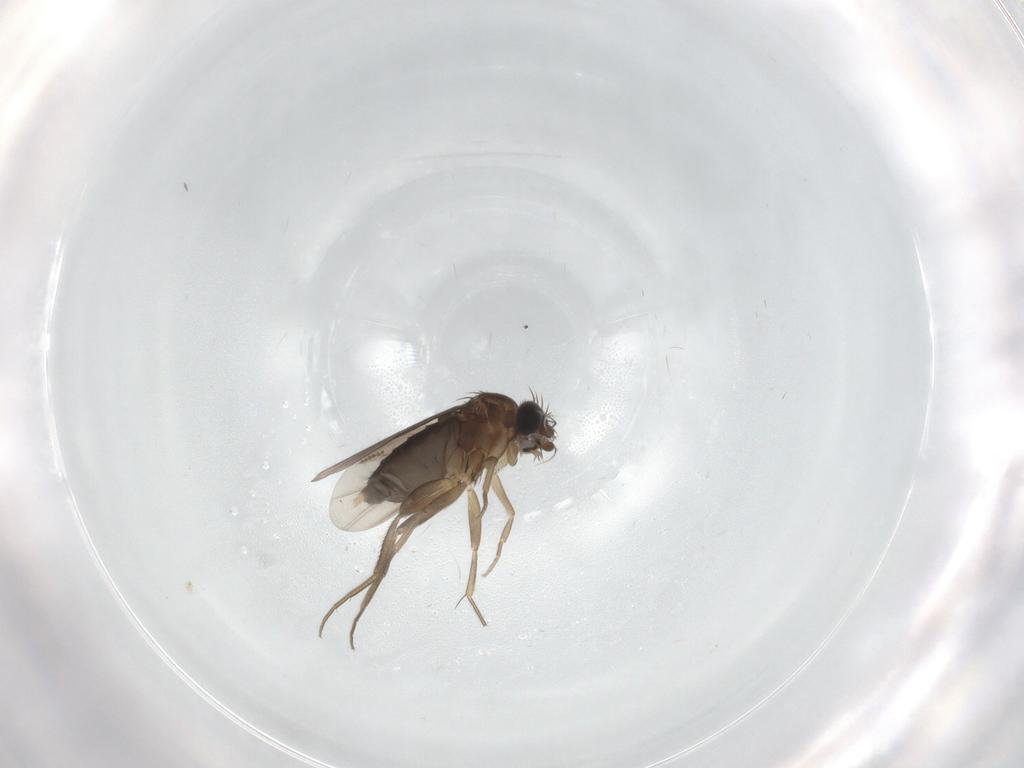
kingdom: Animalia
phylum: Arthropoda
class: Insecta
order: Diptera
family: Phoridae
